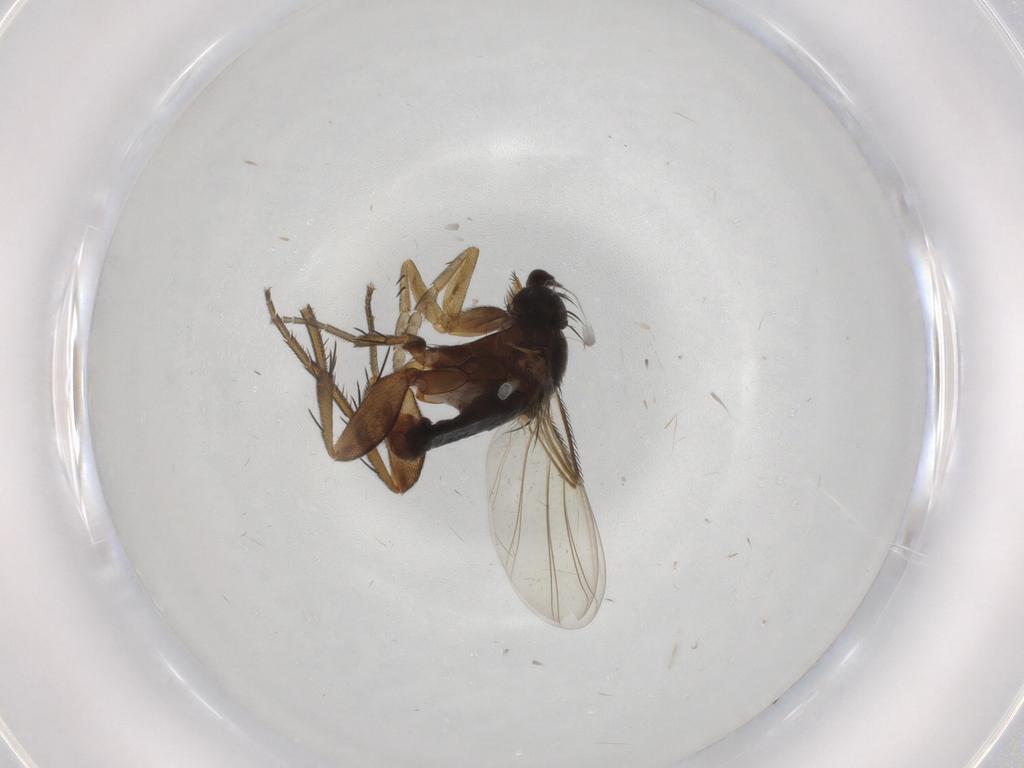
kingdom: Animalia
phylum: Arthropoda
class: Insecta
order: Diptera
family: Phoridae
